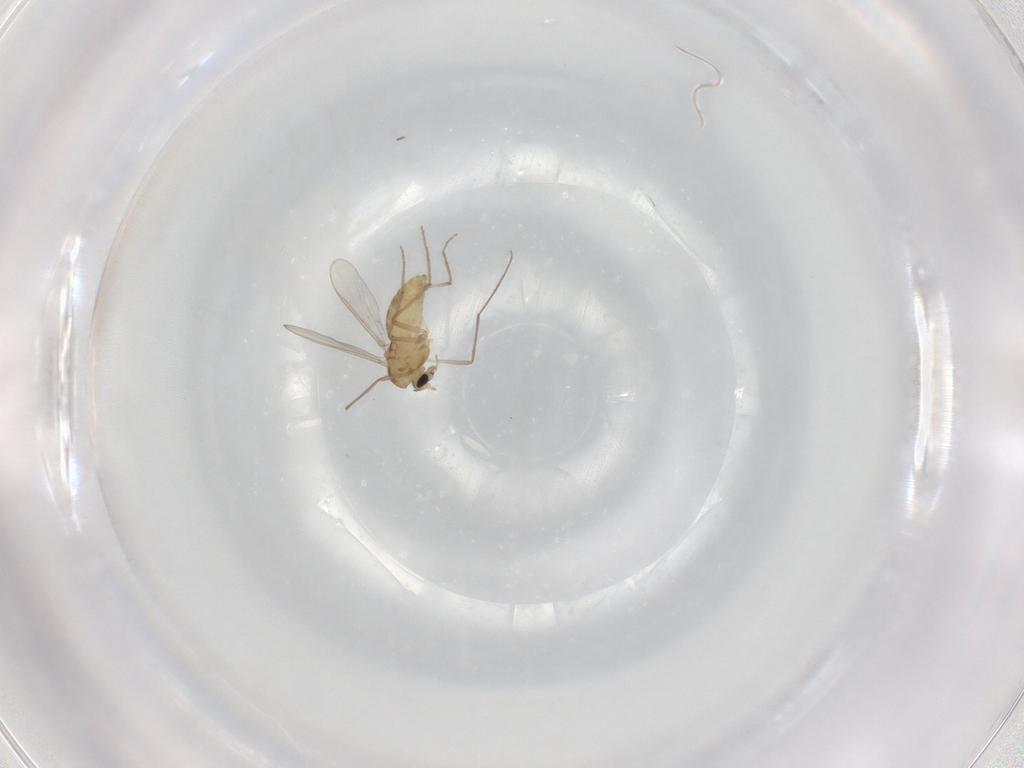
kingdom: Animalia
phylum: Arthropoda
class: Insecta
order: Diptera
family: Chironomidae
